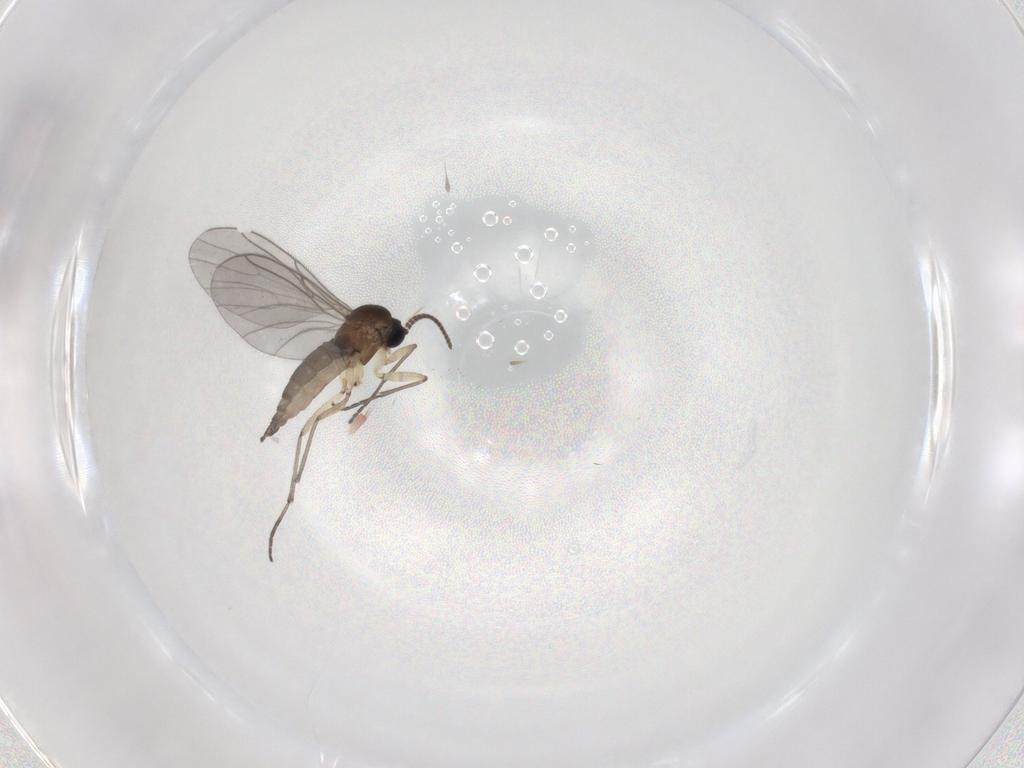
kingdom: Animalia
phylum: Arthropoda
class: Insecta
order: Diptera
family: Sciaridae
